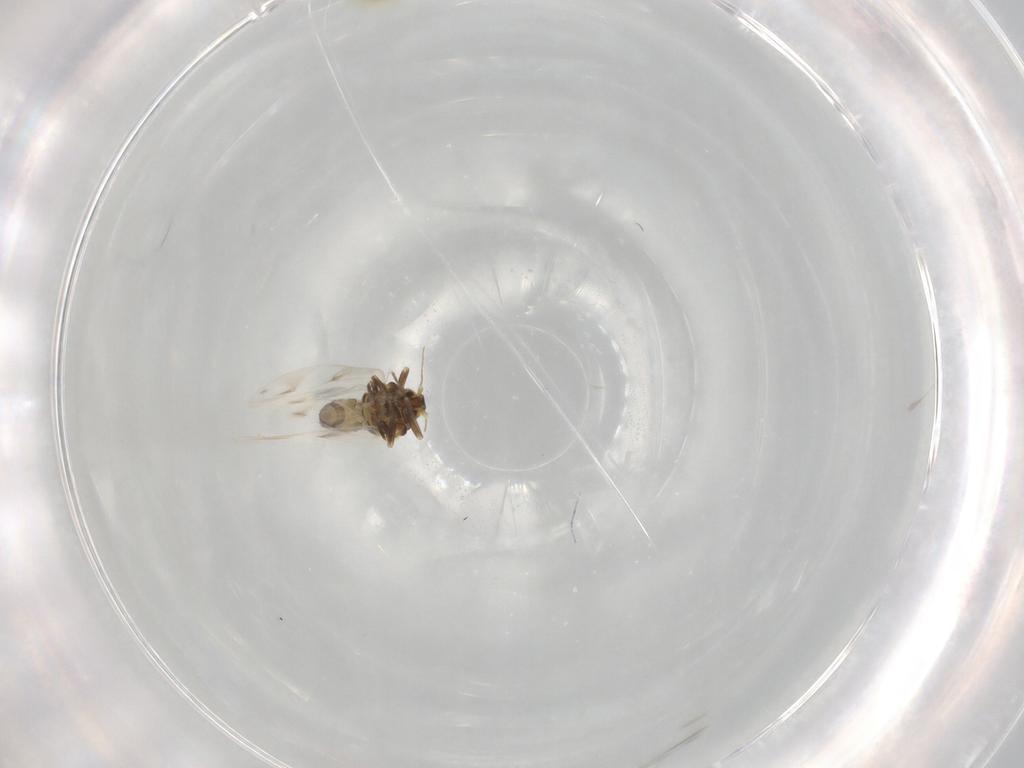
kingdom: Animalia
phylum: Arthropoda
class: Insecta
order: Hemiptera
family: Aleyrodidae
